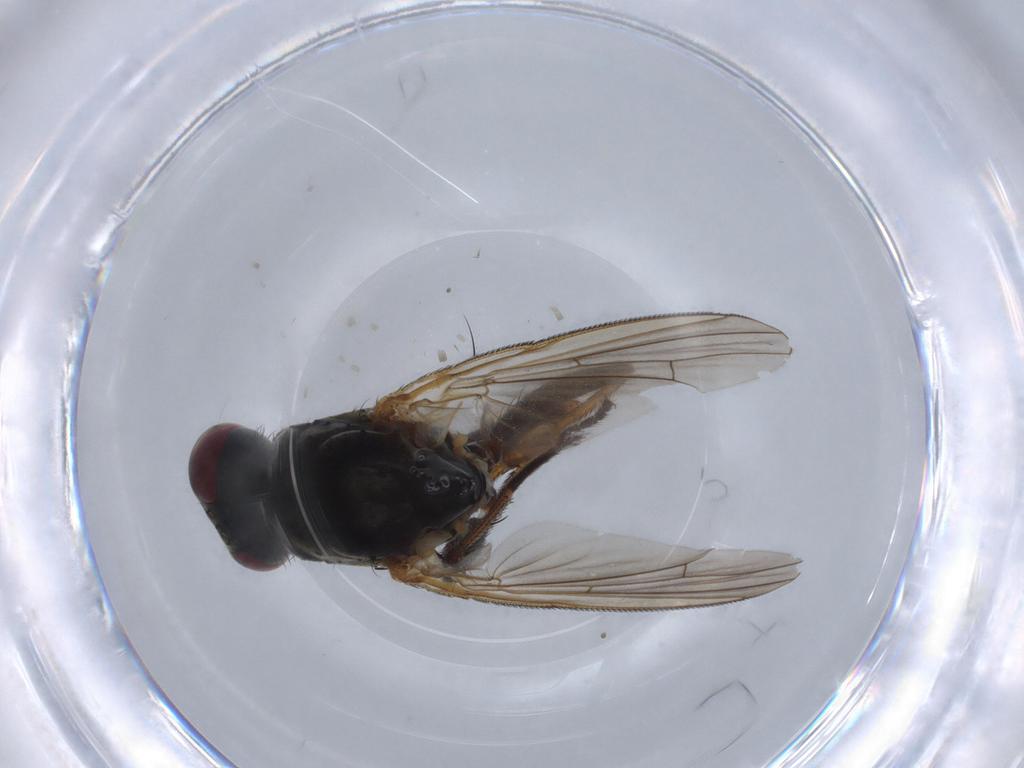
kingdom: Animalia
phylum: Arthropoda
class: Insecta
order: Diptera
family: Muscidae
